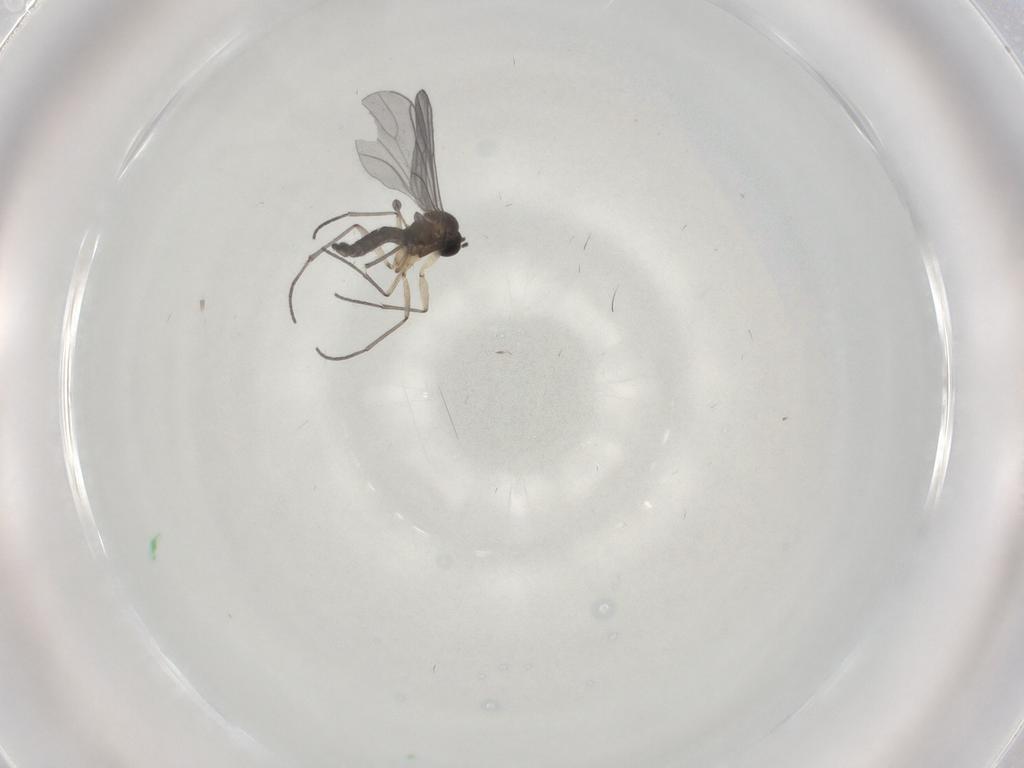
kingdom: Animalia
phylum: Arthropoda
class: Insecta
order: Diptera
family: Sciaridae
